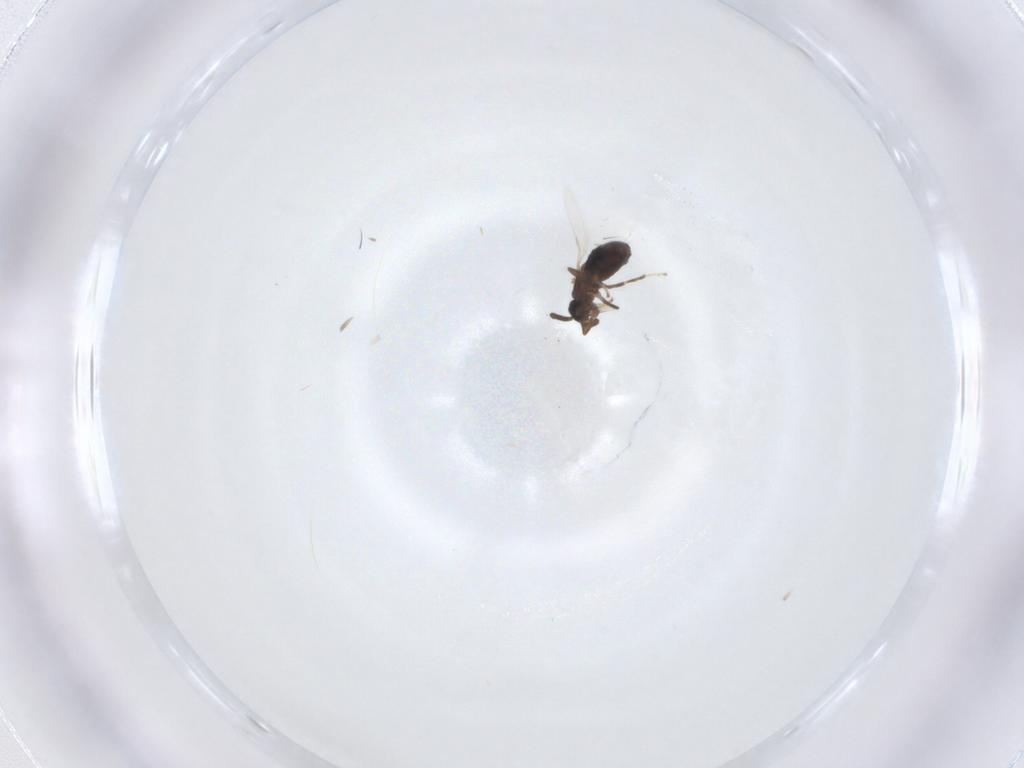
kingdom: Animalia
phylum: Arthropoda
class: Insecta
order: Diptera
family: Scatopsidae
